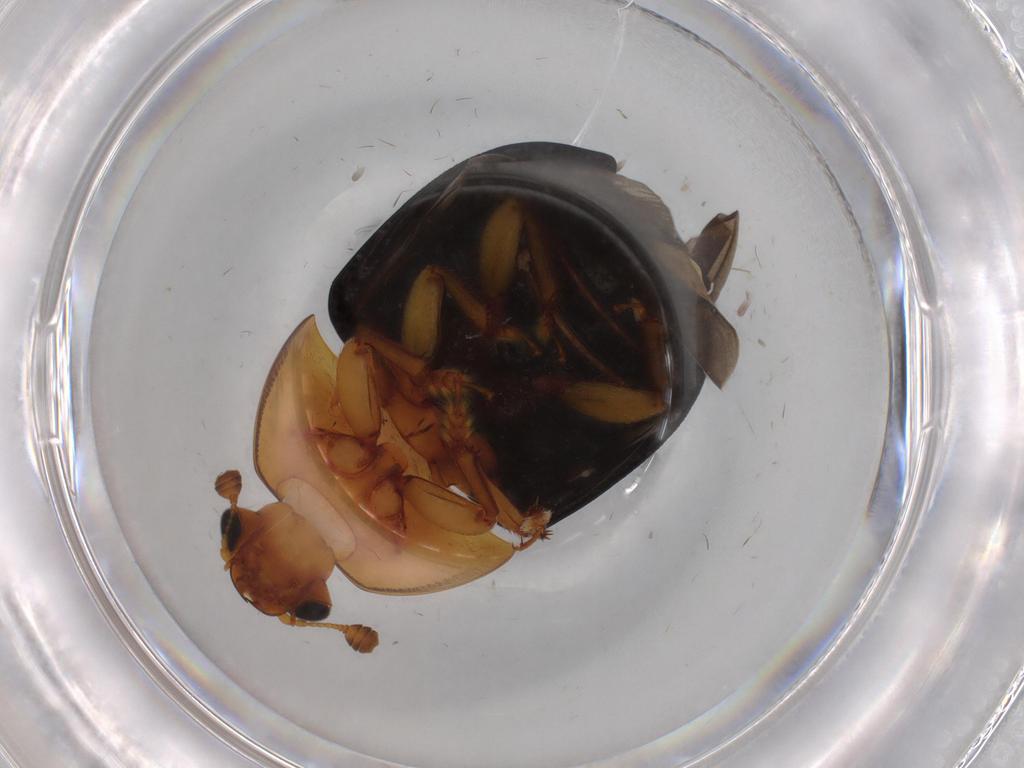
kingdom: Animalia
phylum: Arthropoda
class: Insecta
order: Coleoptera
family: Nitidulidae
